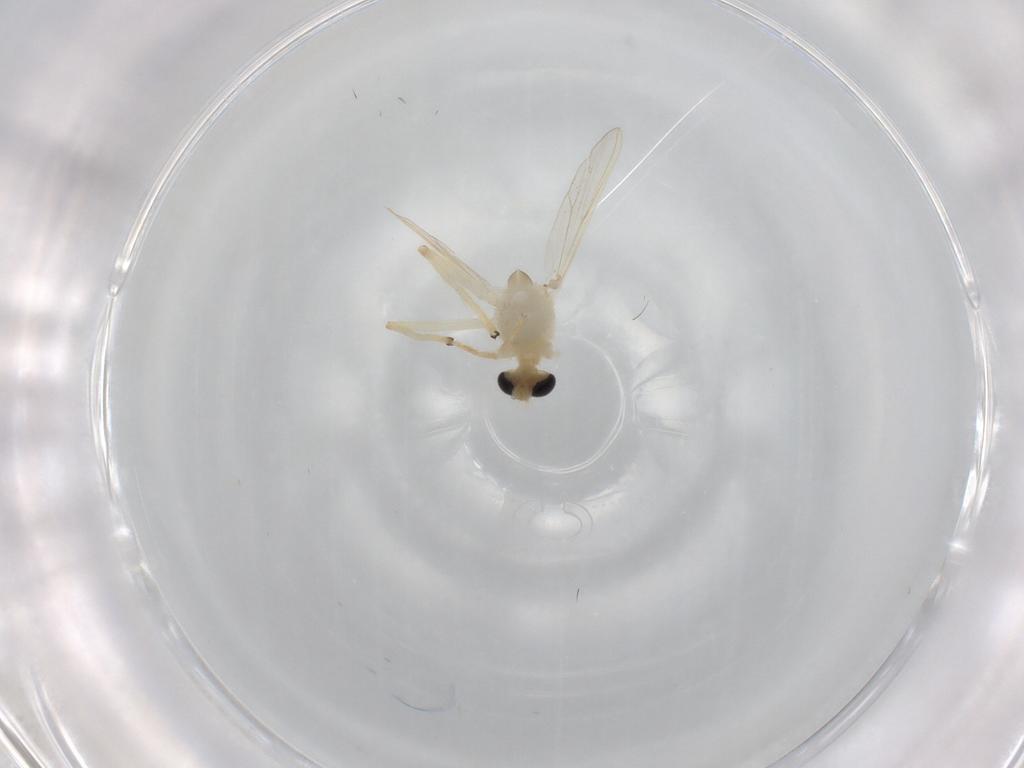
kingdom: Animalia
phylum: Arthropoda
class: Insecta
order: Diptera
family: Chironomidae
